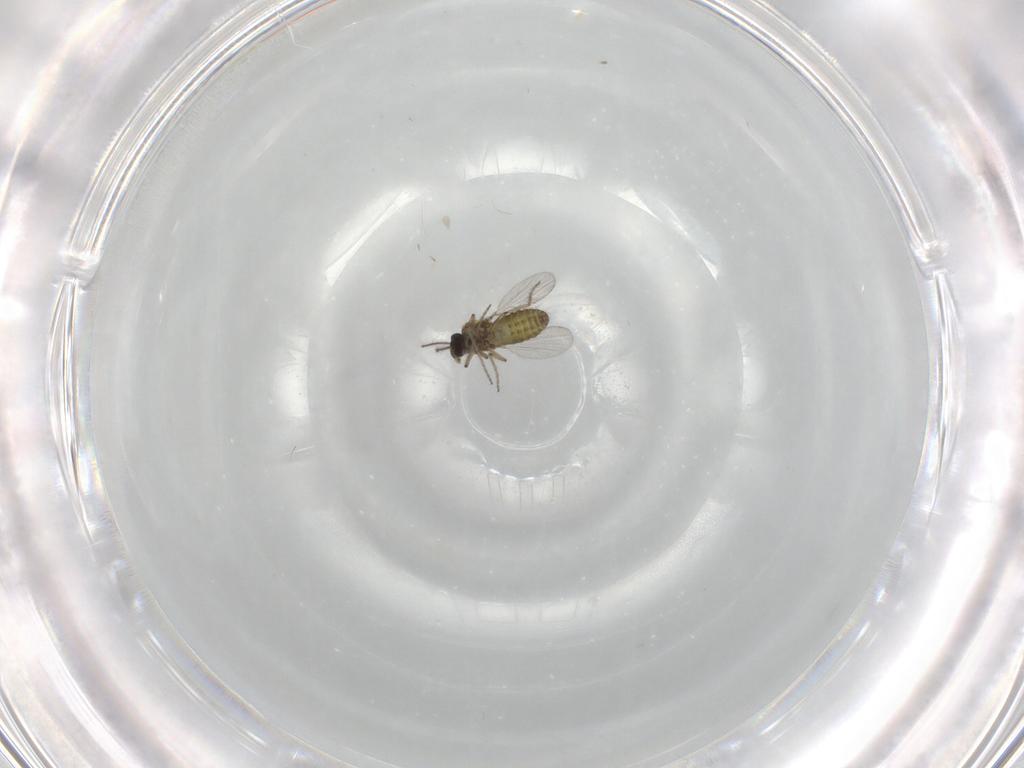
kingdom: Animalia
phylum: Arthropoda
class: Insecta
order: Diptera
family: Ceratopogonidae
